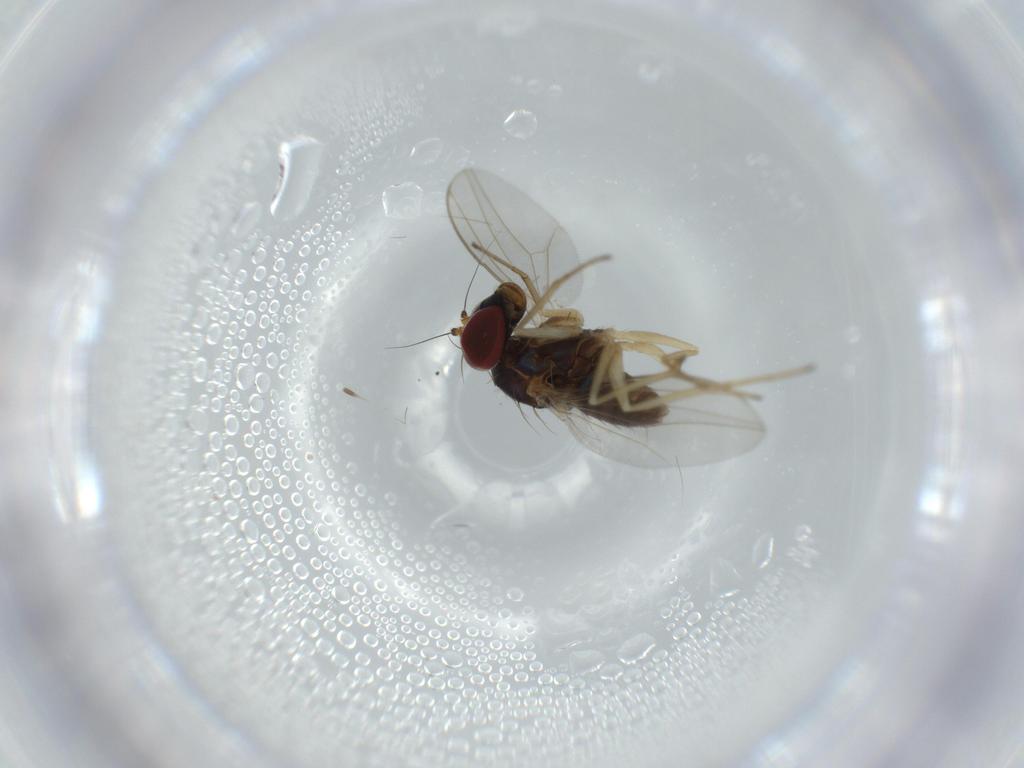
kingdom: Animalia
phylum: Arthropoda
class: Insecta
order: Diptera
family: Dolichopodidae
